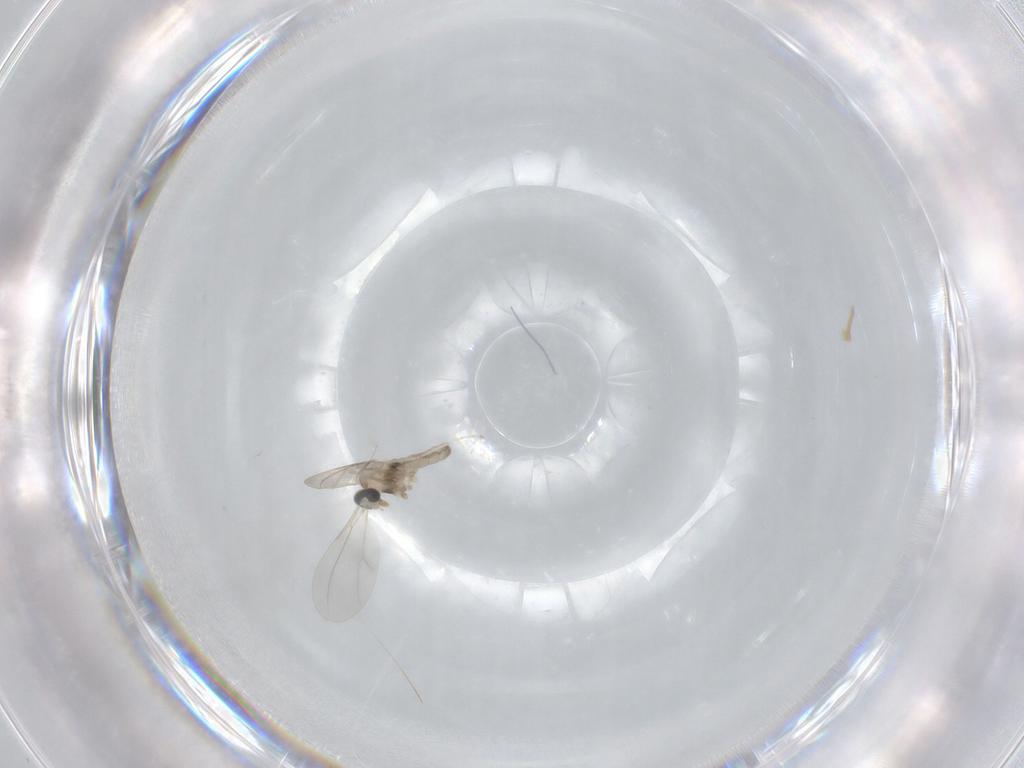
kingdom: Animalia
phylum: Arthropoda
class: Insecta
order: Diptera
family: Cecidomyiidae
